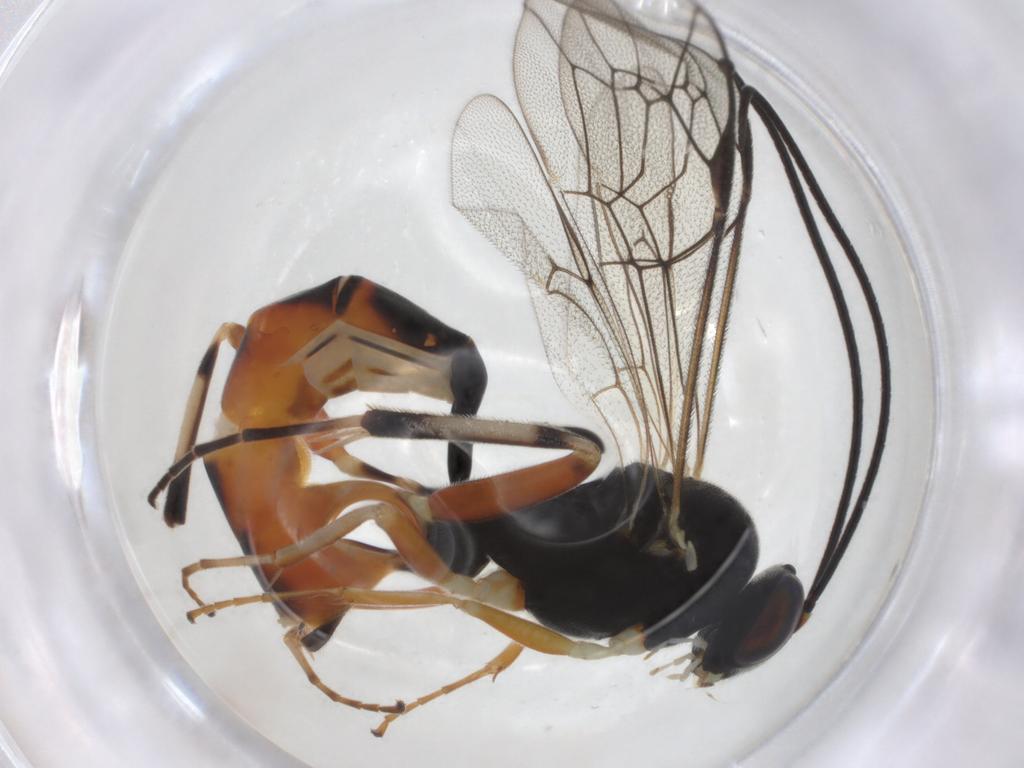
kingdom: Animalia
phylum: Arthropoda
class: Insecta
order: Hymenoptera
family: Ichneumonidae
